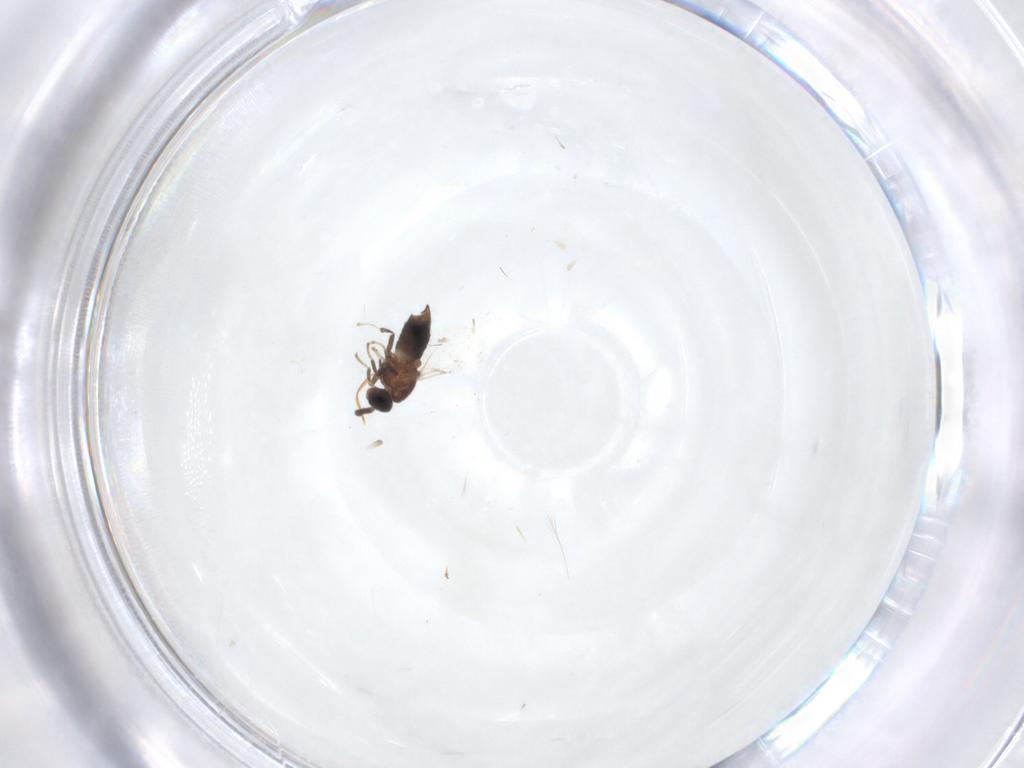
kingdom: Animalia
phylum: Arthropoda
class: Insecta
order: Diptera
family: Scatopsidae
